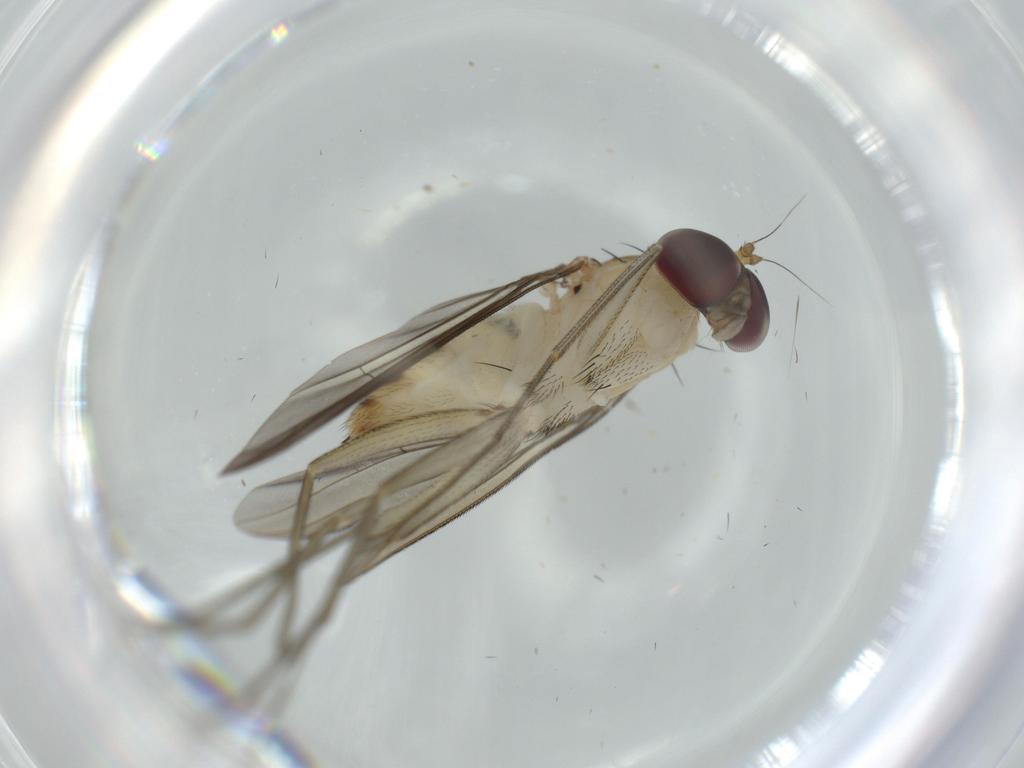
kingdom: Animalia
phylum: Arthropoda
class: Insecta
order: Diptera
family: Dolichopodidae
